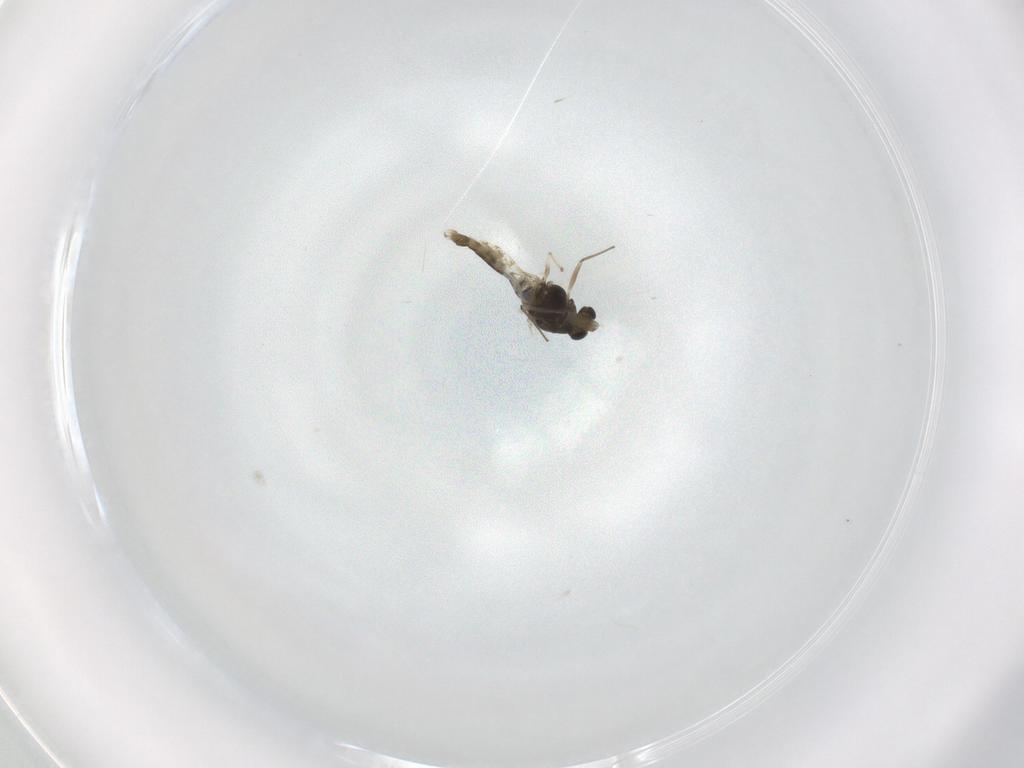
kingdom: Animalia
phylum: Arthropoda
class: Insecta
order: Diptera
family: Chironomidae
